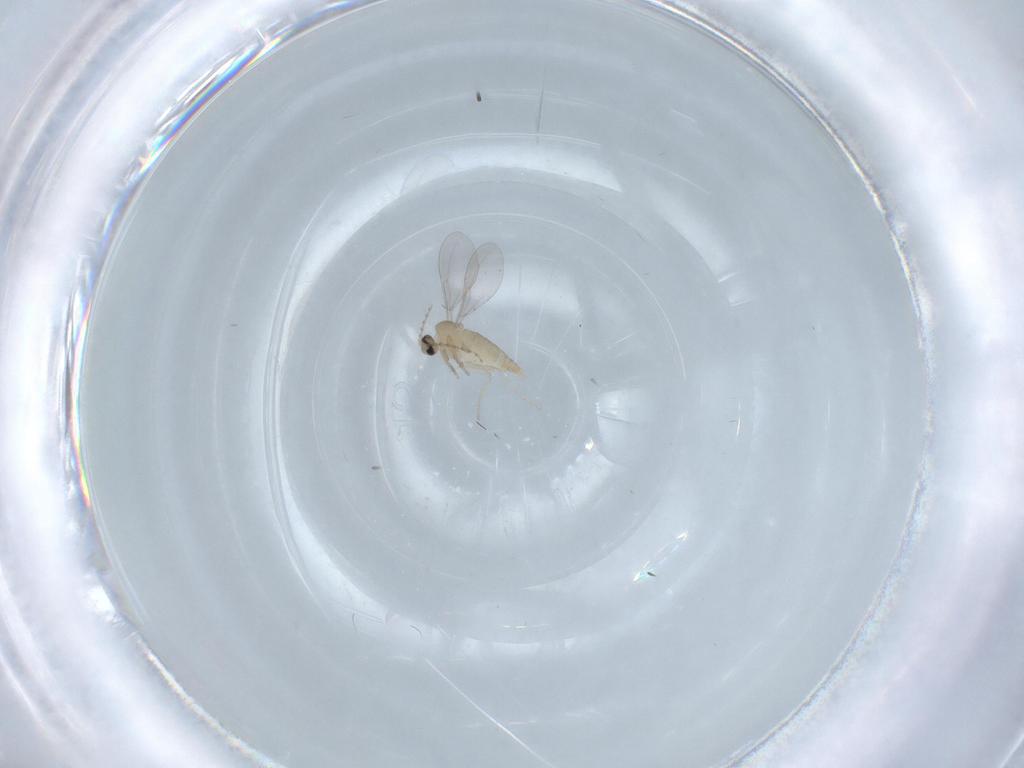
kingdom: Animalia
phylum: Arthropoda
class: Insecta
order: Diptera
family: Cecidomyiidae
